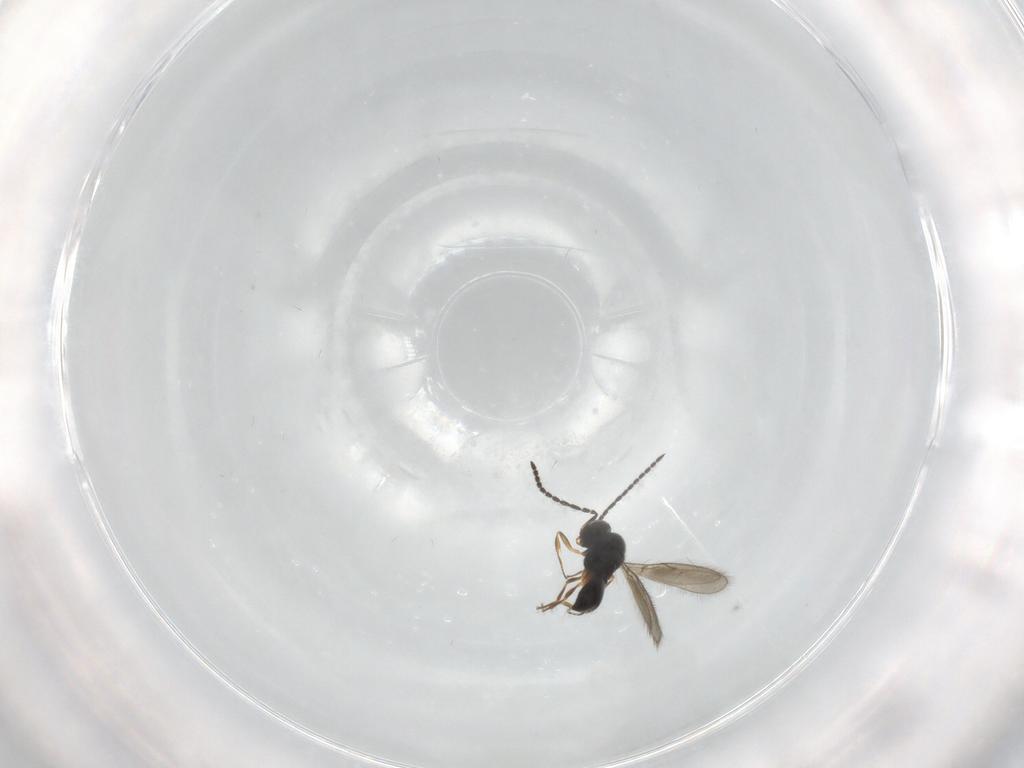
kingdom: Animalia
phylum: Arthropoda
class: Insecta
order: Hymenoptera
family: Scelionidae
